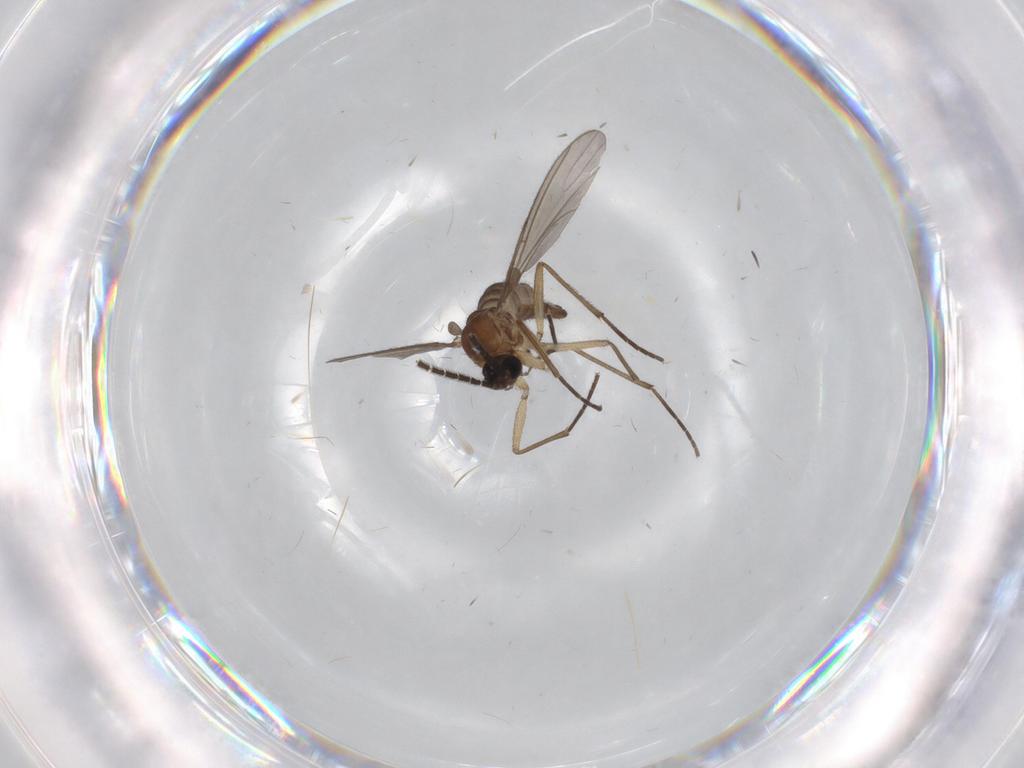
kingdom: Animalia
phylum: Arthropoda
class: Insecta
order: Diptera
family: Sciaridae
